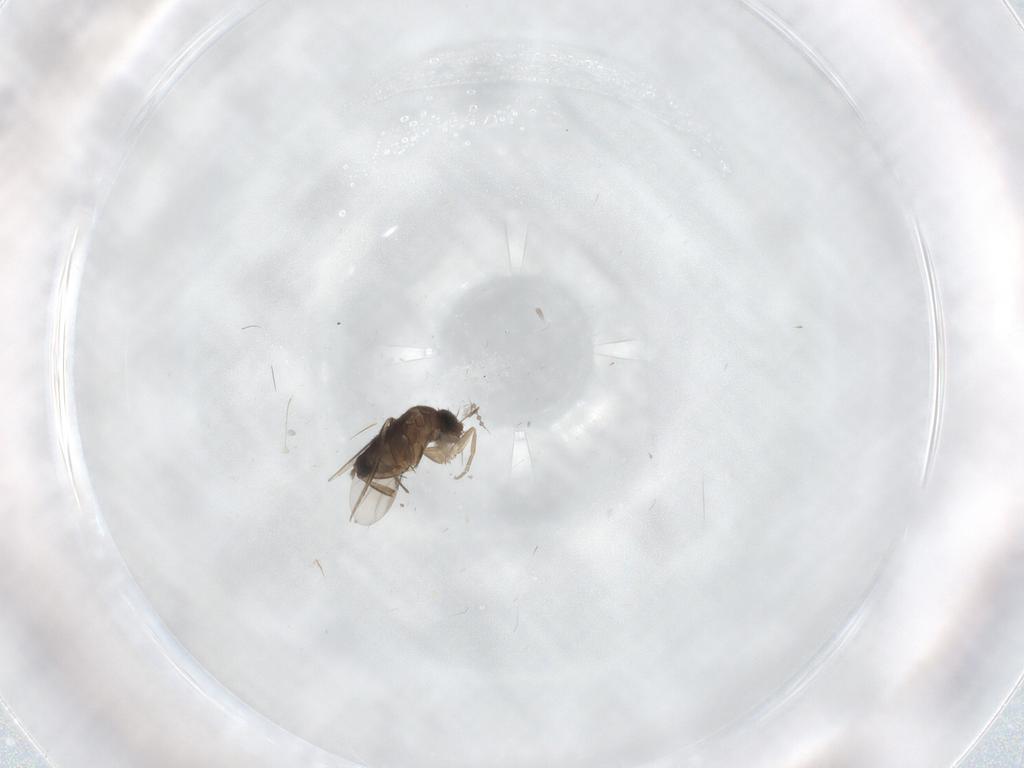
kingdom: Animalia
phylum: Arthropoda
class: Insecta
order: Diptera
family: Phoridae
